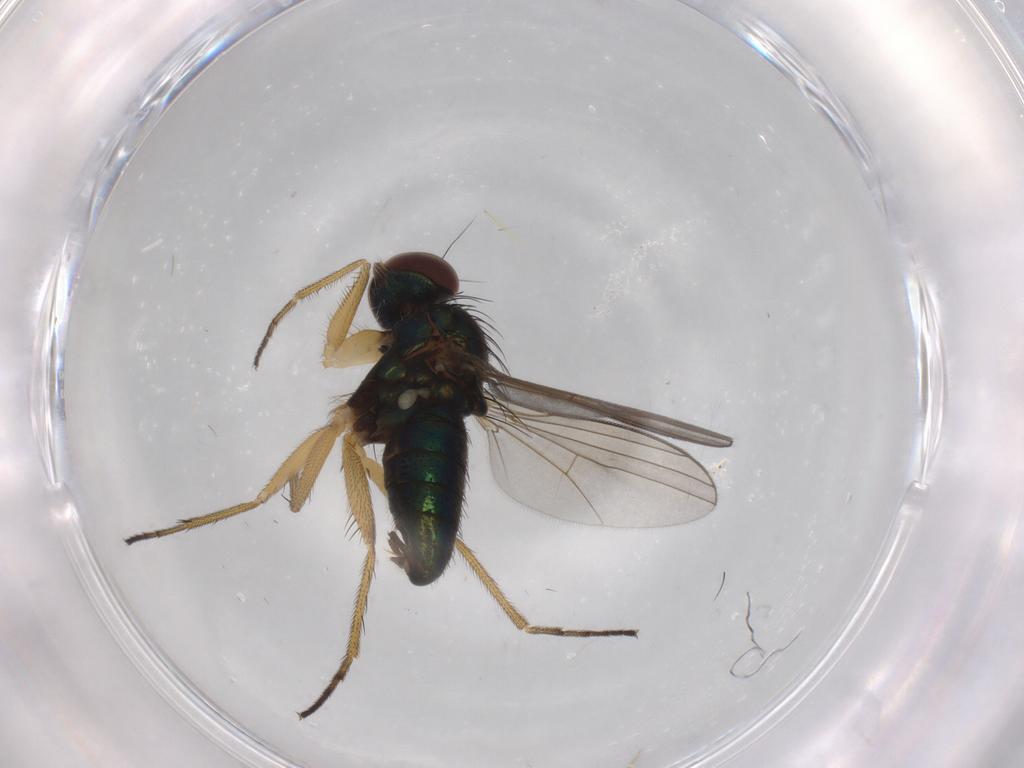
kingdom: Animalia
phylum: Arthropoda
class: Insecta
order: Diptera
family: Dolichopodidae
